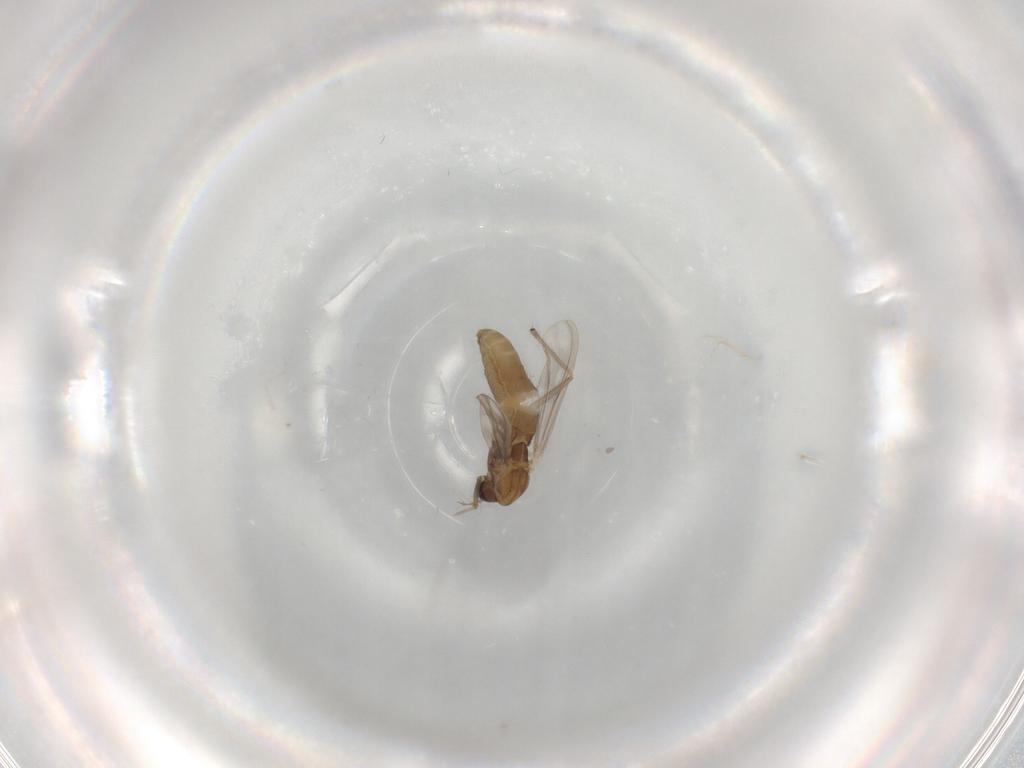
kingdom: Animalia
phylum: Arthropoda
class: Insecta
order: Diptera
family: Chironomidae
